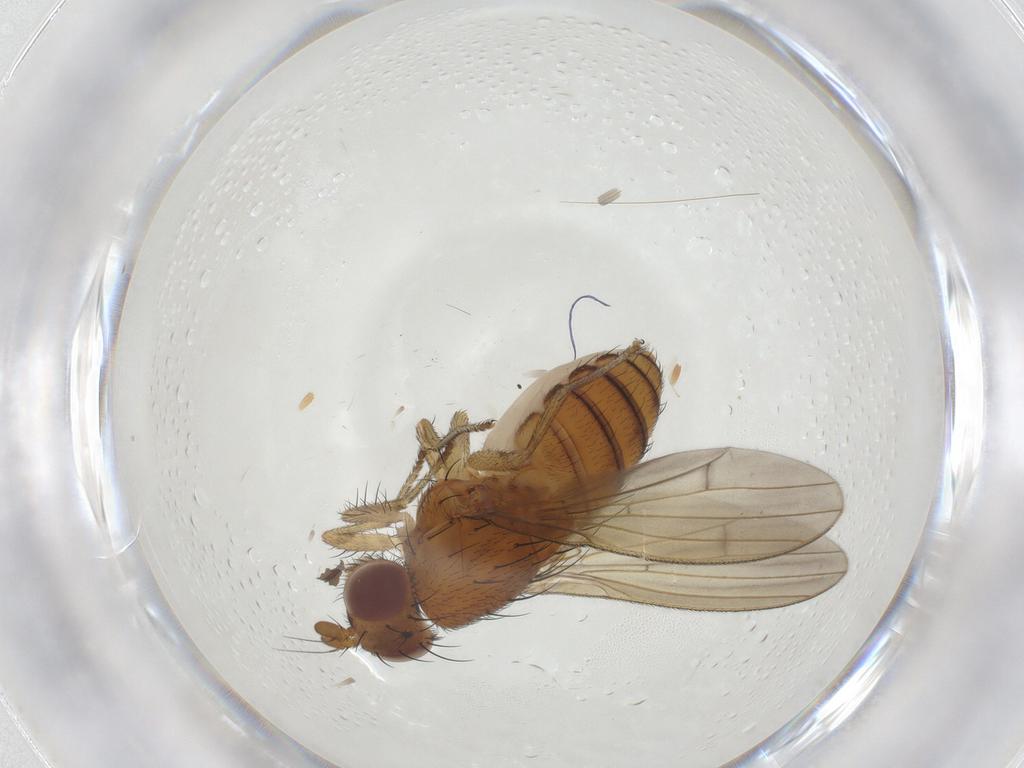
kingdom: Animalia
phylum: Arthropoda
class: Insecta
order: Diptera
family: Lauxaniidae
